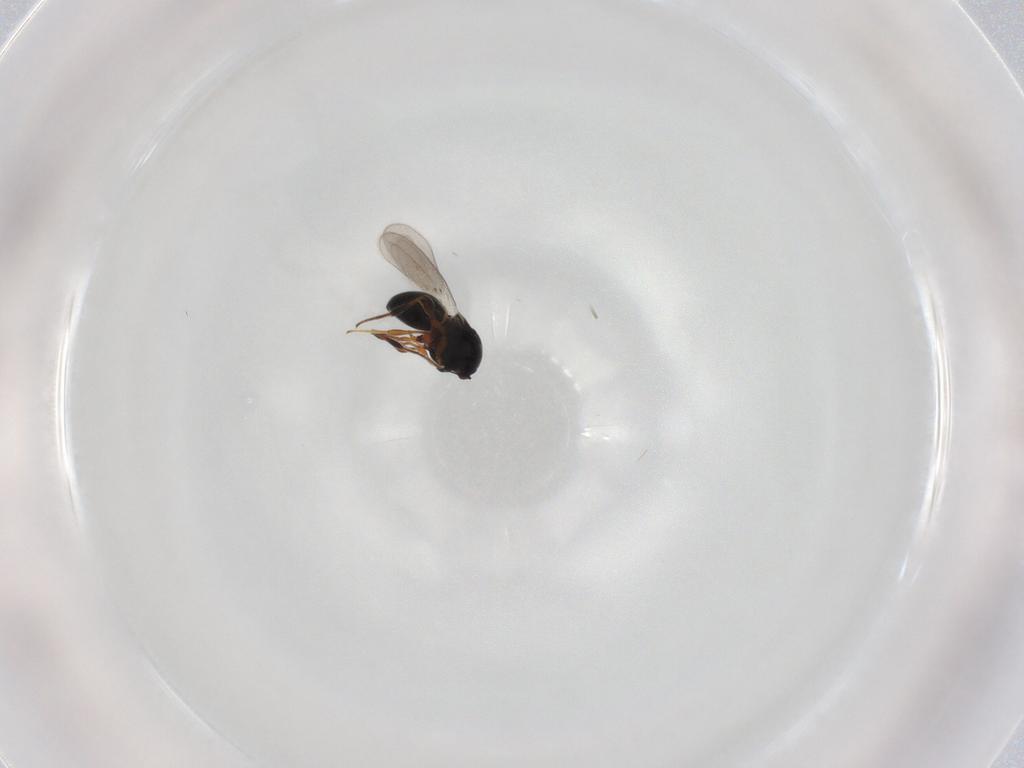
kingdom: Animalia
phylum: Arthropoda
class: Insecta
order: Hymenoptera
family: Platygastridae
